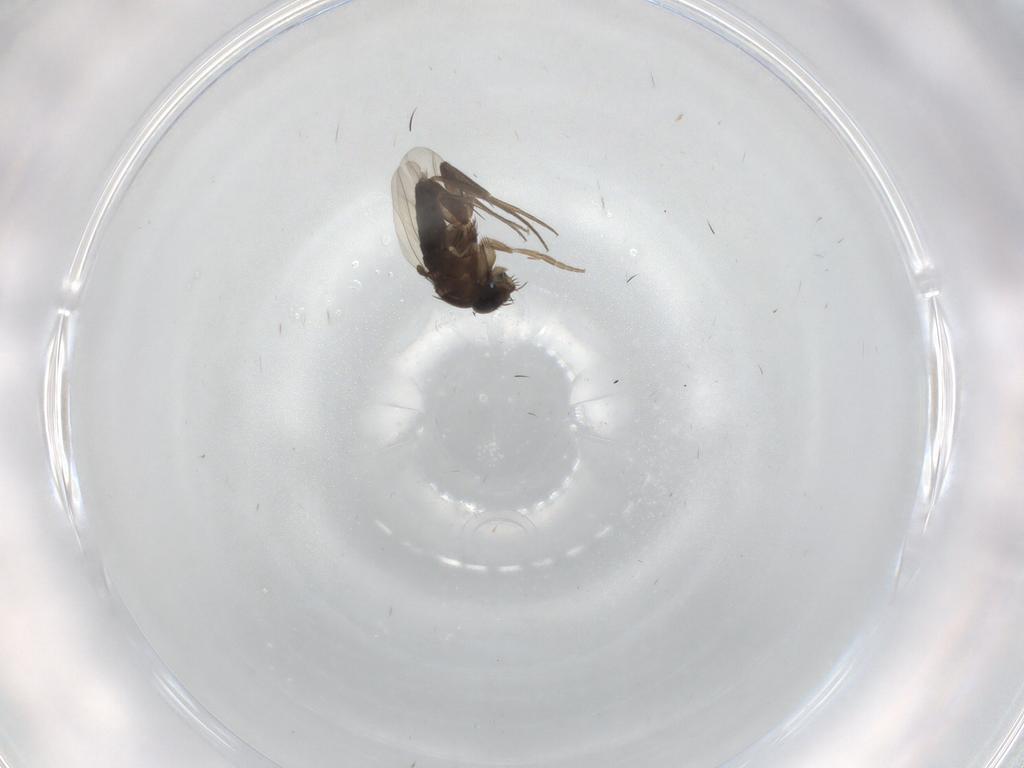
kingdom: Animalia
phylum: Arthropoda
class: Insecta
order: Diptera
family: Phoridae
